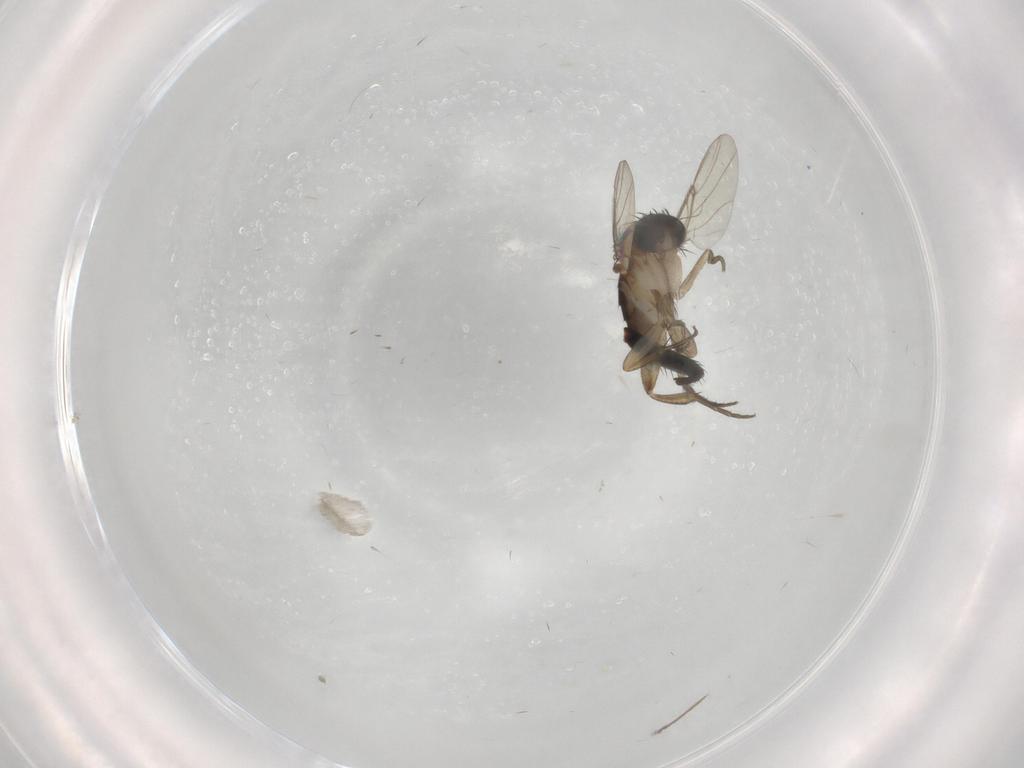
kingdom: Animalia
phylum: Arthropoda
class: Insecta
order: Diptera
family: Phoridae
